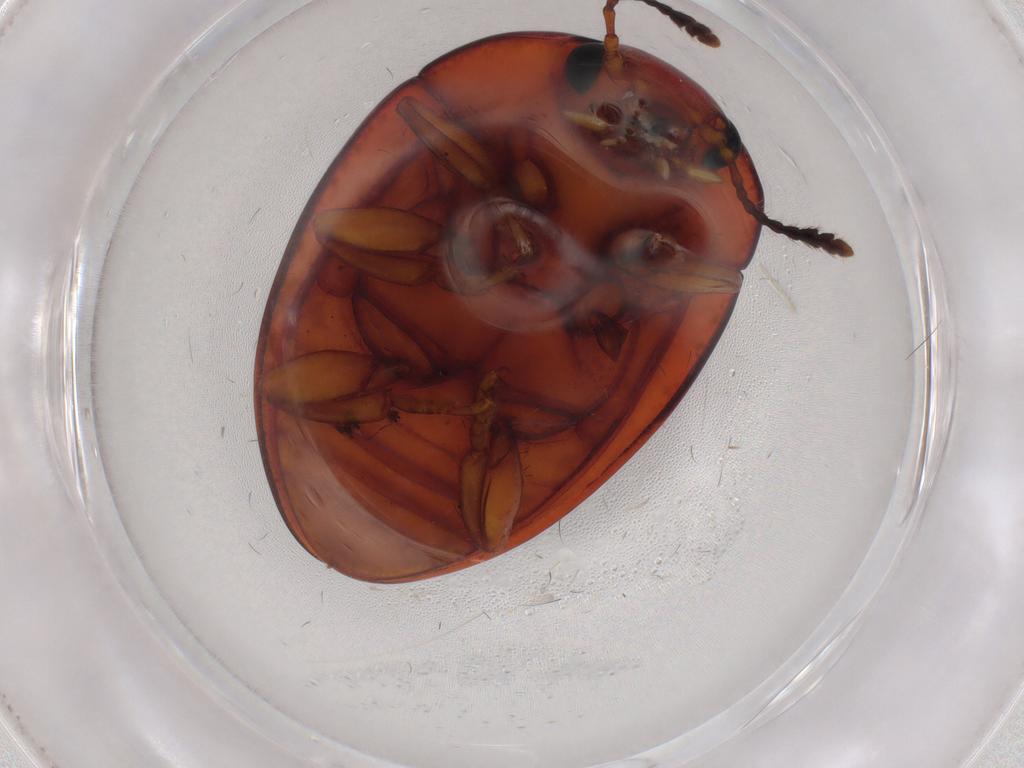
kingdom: Animalia
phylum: Arthropoda
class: Insecta
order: Coleoptera
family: Erotylidae
